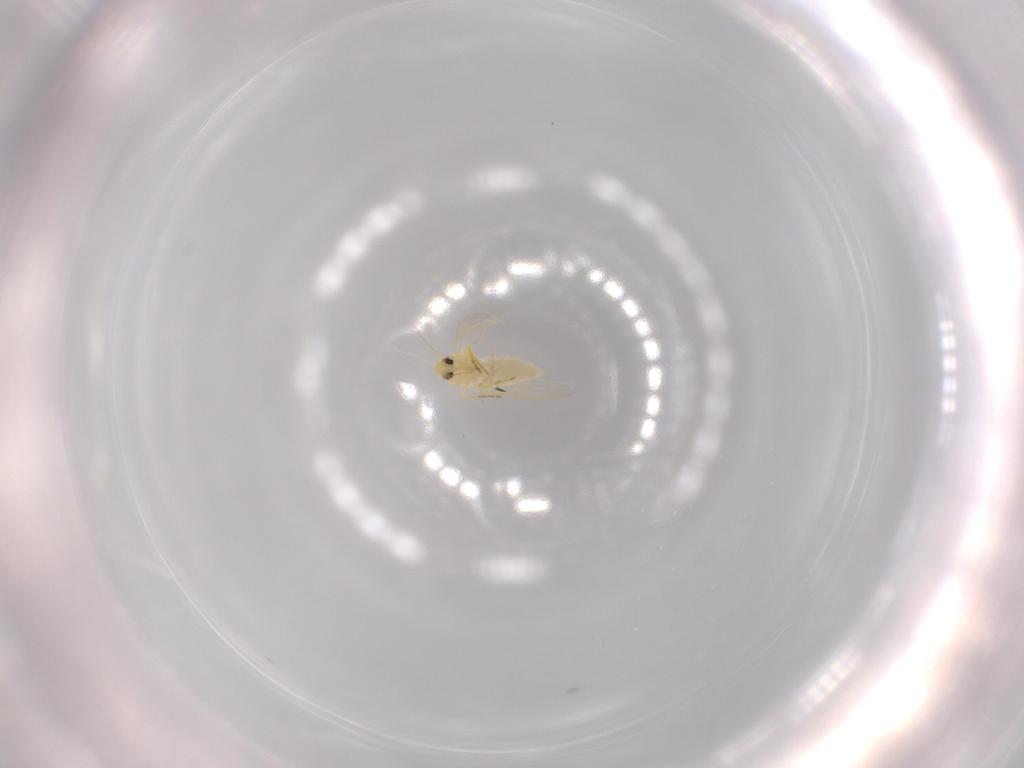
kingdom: Animalia
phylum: Arthropoda
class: Insecta
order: Hemiptera
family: Aleyrodidae
